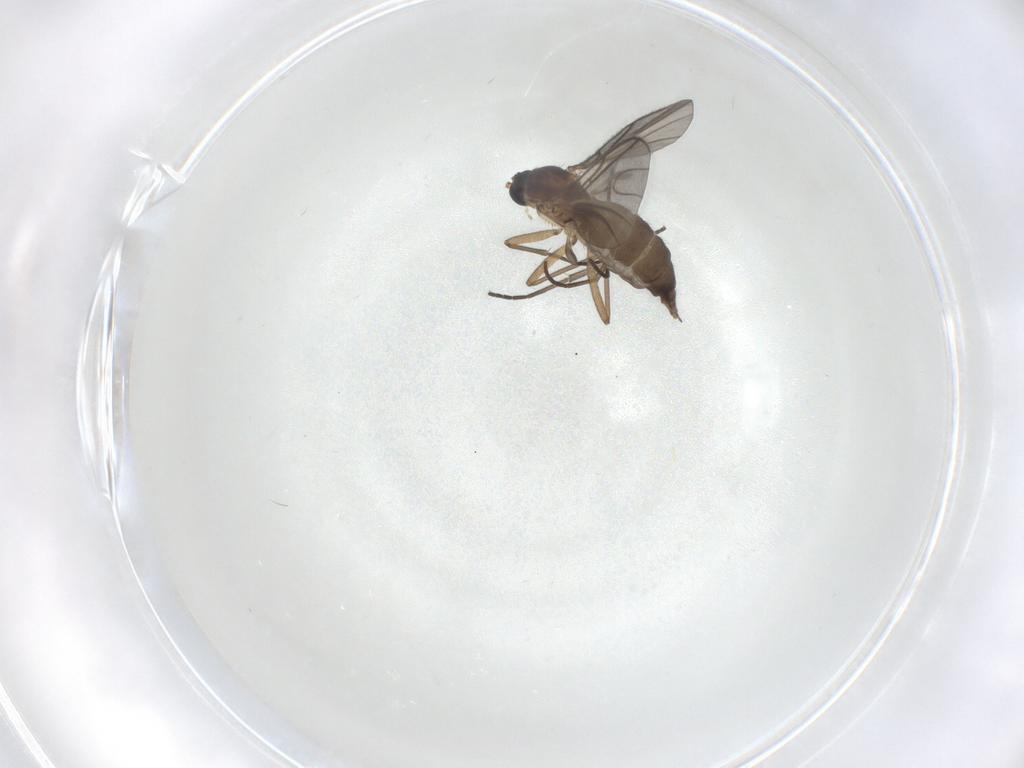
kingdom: Animalia
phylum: Arthropoda
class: Insecta
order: Diptera
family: Sciaridae
